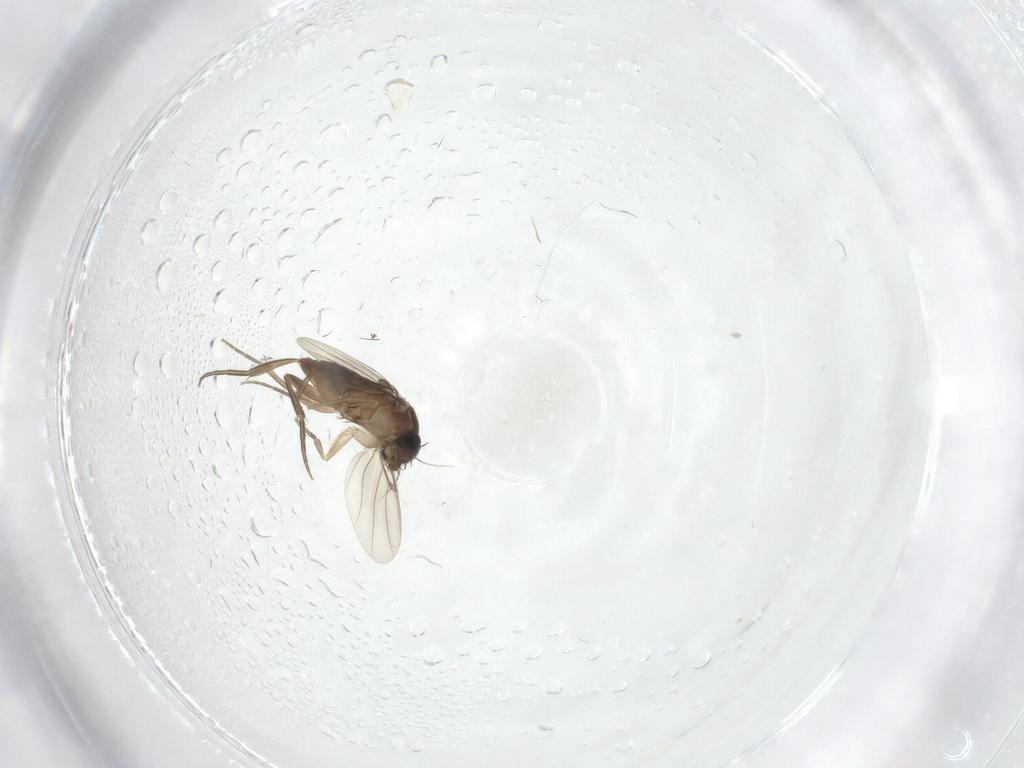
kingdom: Animalia
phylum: Arthropoda
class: Insecta
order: Diptera
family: Phoridae
